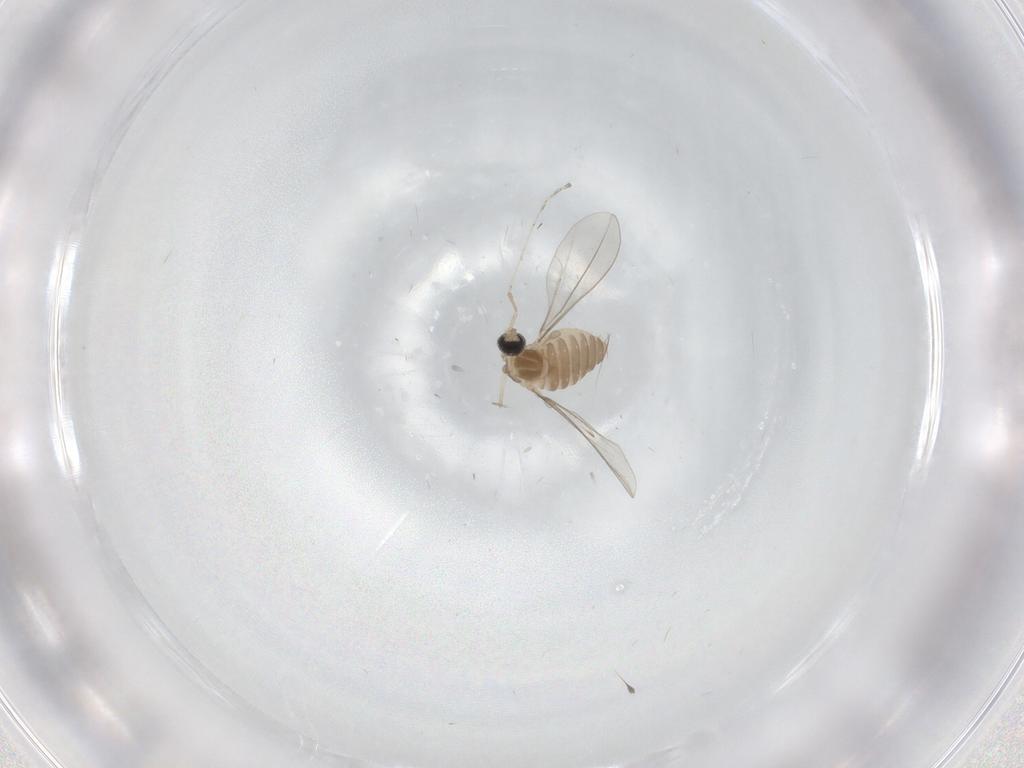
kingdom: Animalia
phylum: Arthropoda
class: Insecta
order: Diptera
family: Cecidomyiidae
